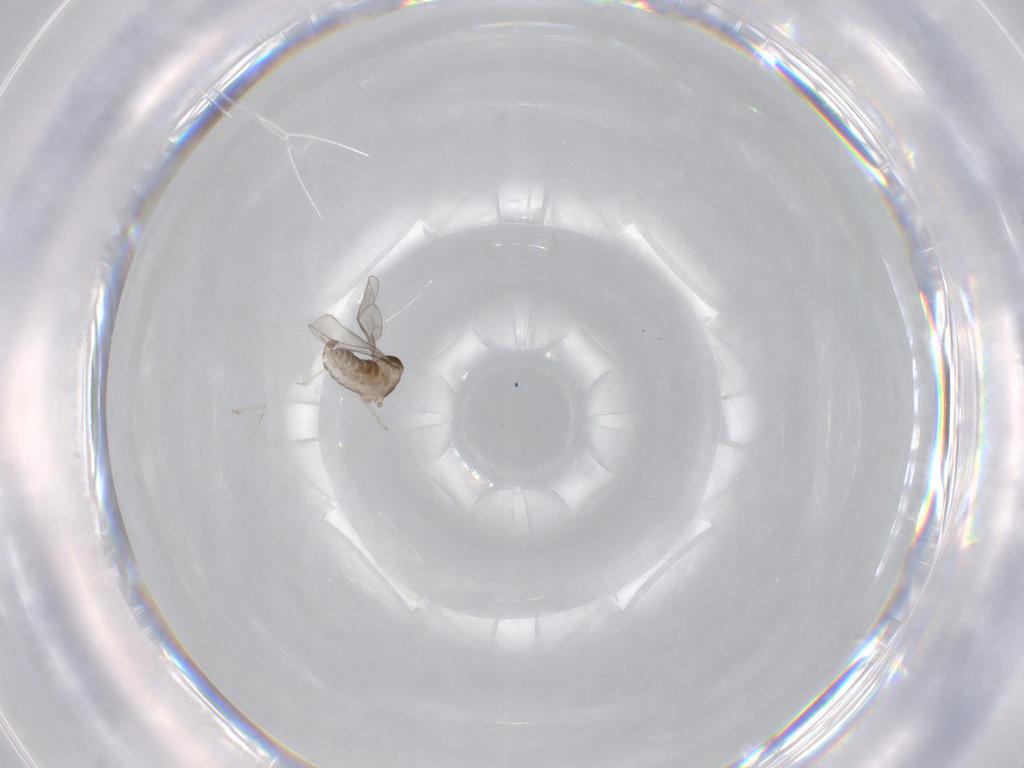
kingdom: Animalia
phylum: Arthropoda
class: Insecta
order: Diptera
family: Cecidomyiidae
